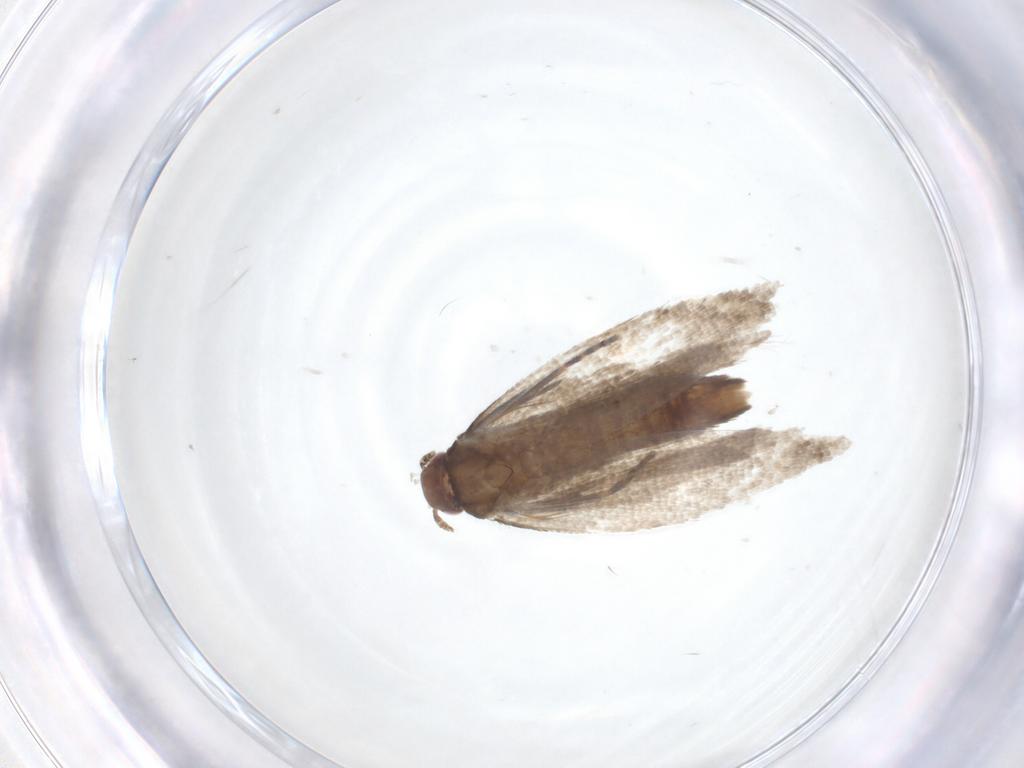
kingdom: Animalia
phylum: Arthropoda
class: Insecta
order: Lepidoptera
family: Gelechiidae
